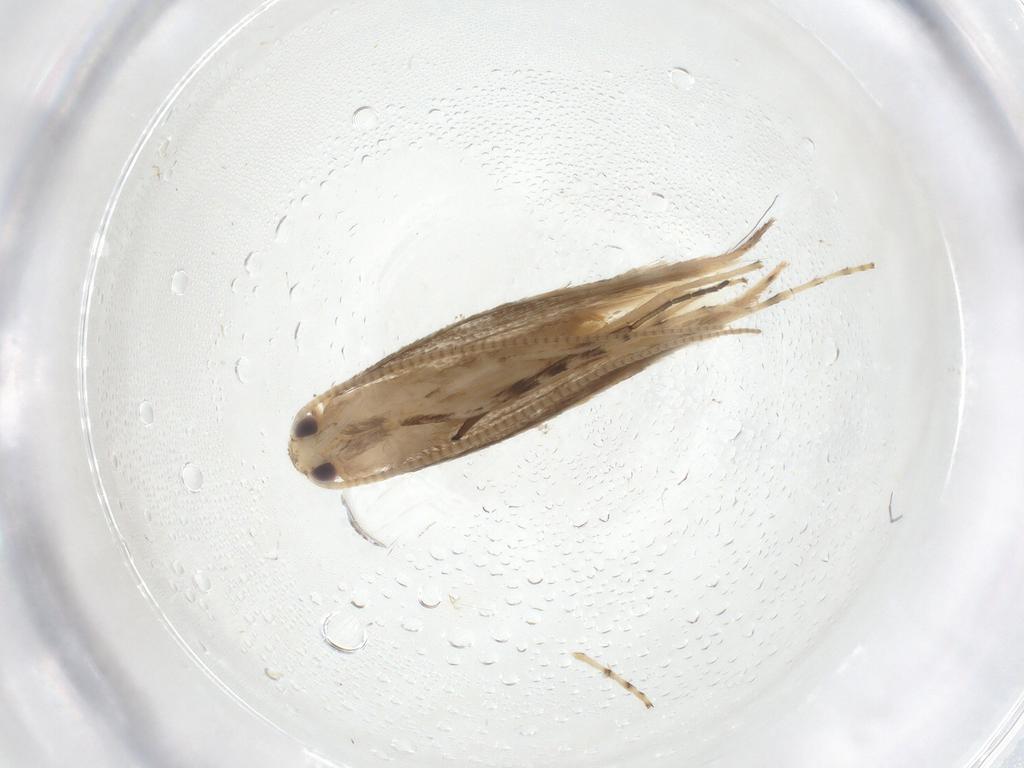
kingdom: Animalia
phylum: Arthropoda
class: Insecta
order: Lepidoptera
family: Gracillariidae
